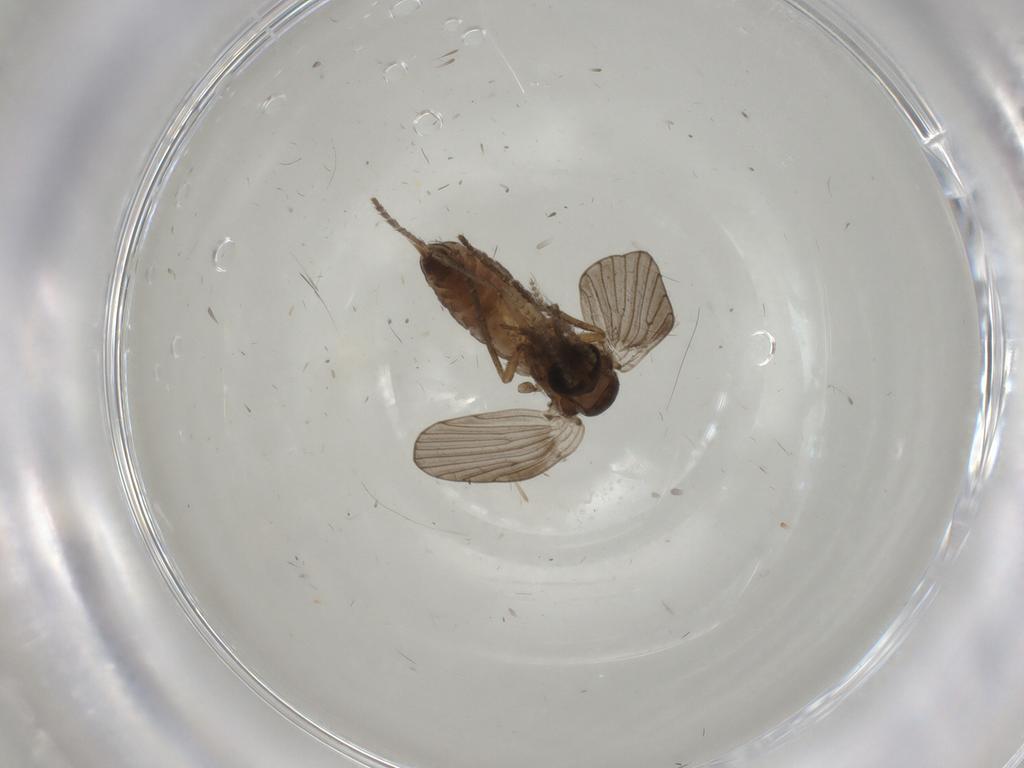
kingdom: Animalia
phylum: Arthropoda
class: Insecta
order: Diptera
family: Psychodidae
